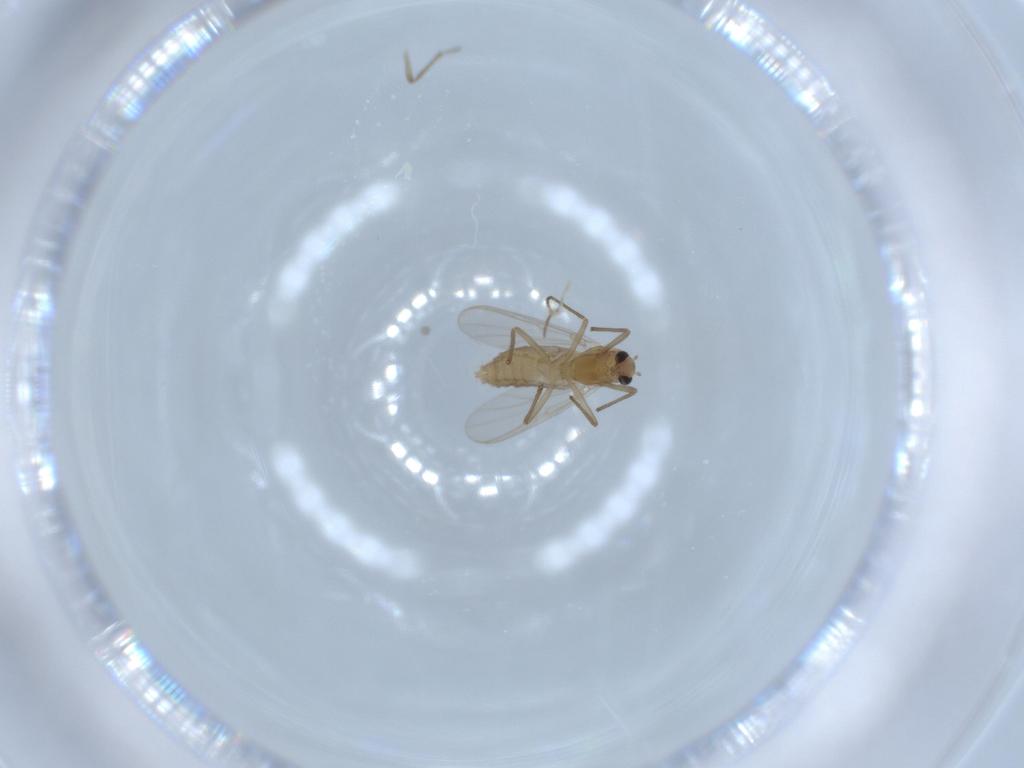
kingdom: Animalia
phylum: Arthropoda
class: Insecta
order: Diptera
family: Chironomidae
